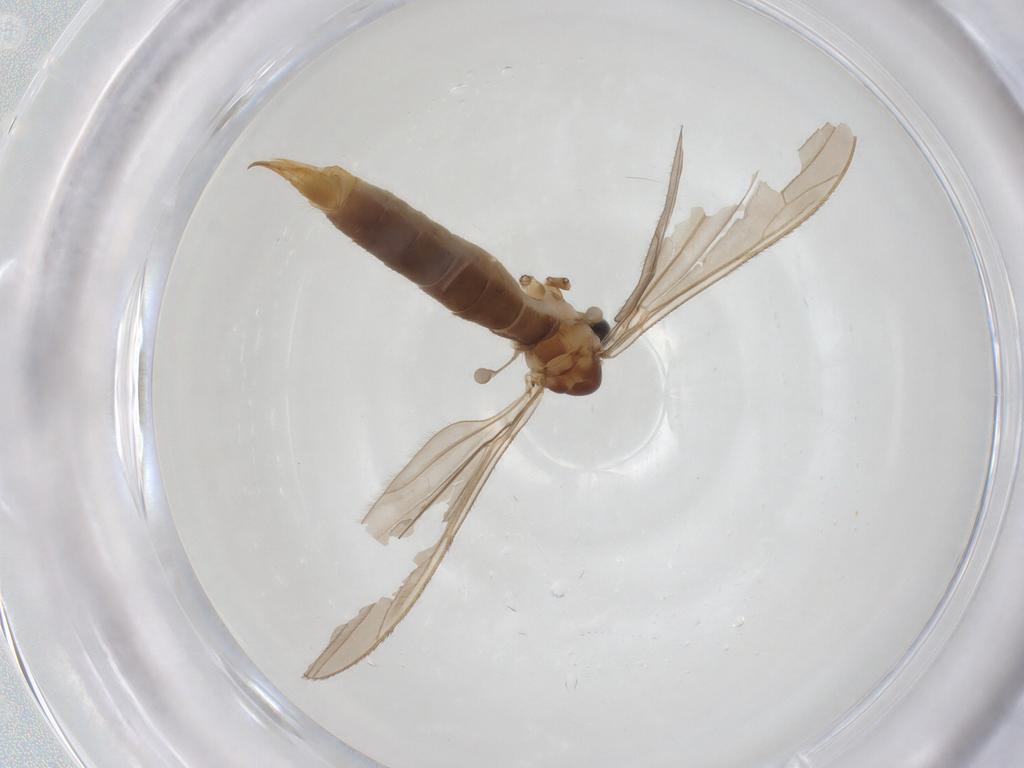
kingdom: Animalia
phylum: Arthropoda
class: Insecta
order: Diptera
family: Limoniidae
